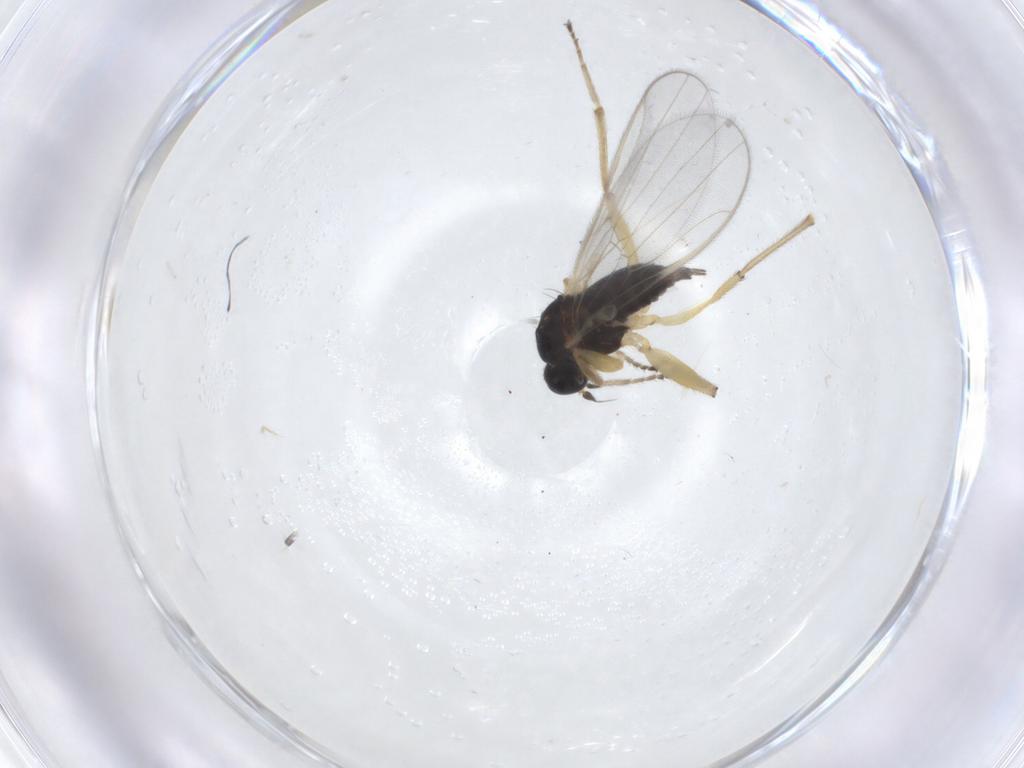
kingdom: Animalia
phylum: Arthropoda
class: Insecta
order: Diptera
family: Hybotidae
